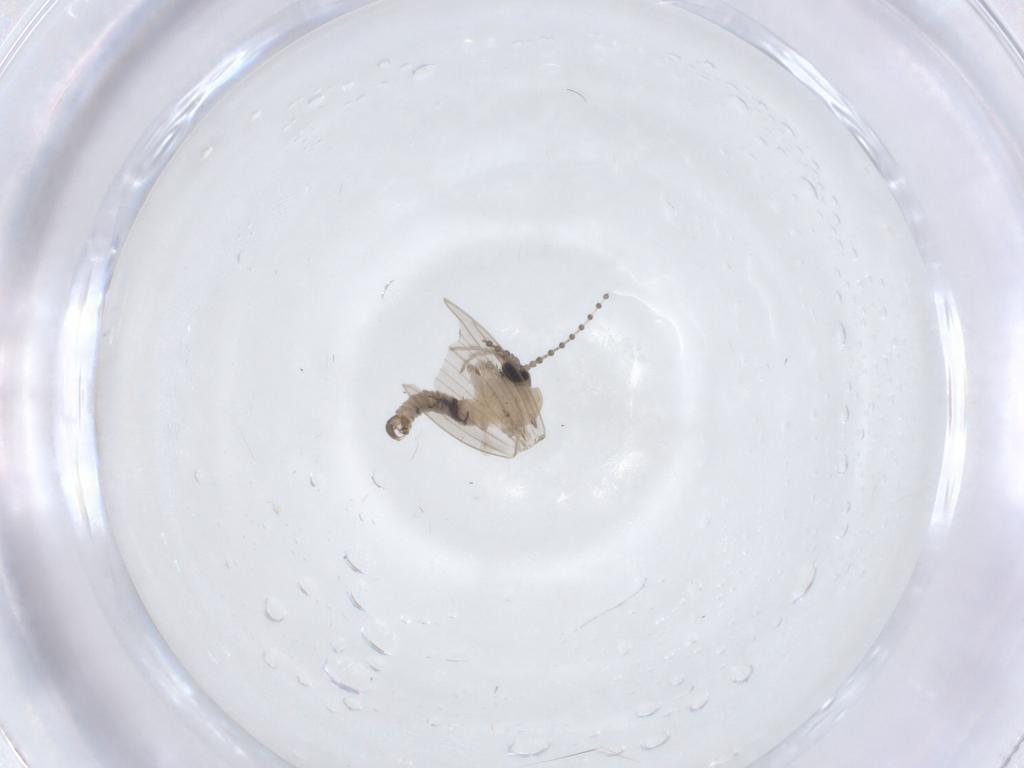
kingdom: Animalia
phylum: Arthropoda
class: Insecta
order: Diptera
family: Psychodidae
